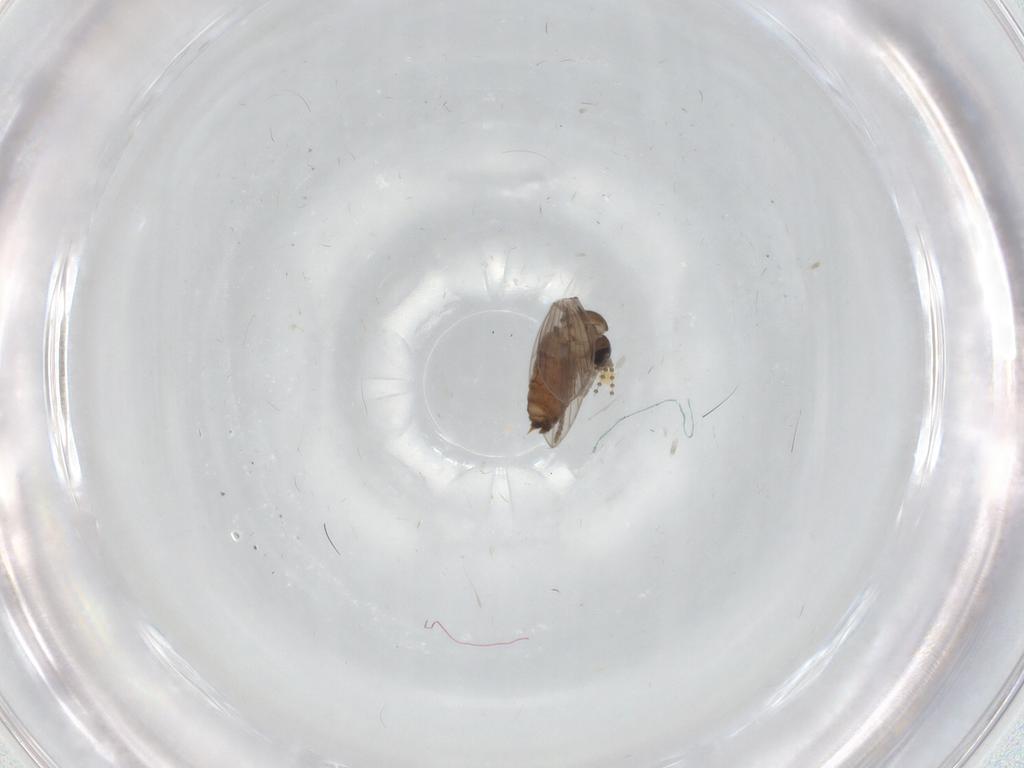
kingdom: Animalia
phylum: Arthropoda
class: Insecta
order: Diptera
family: Psychodidae
